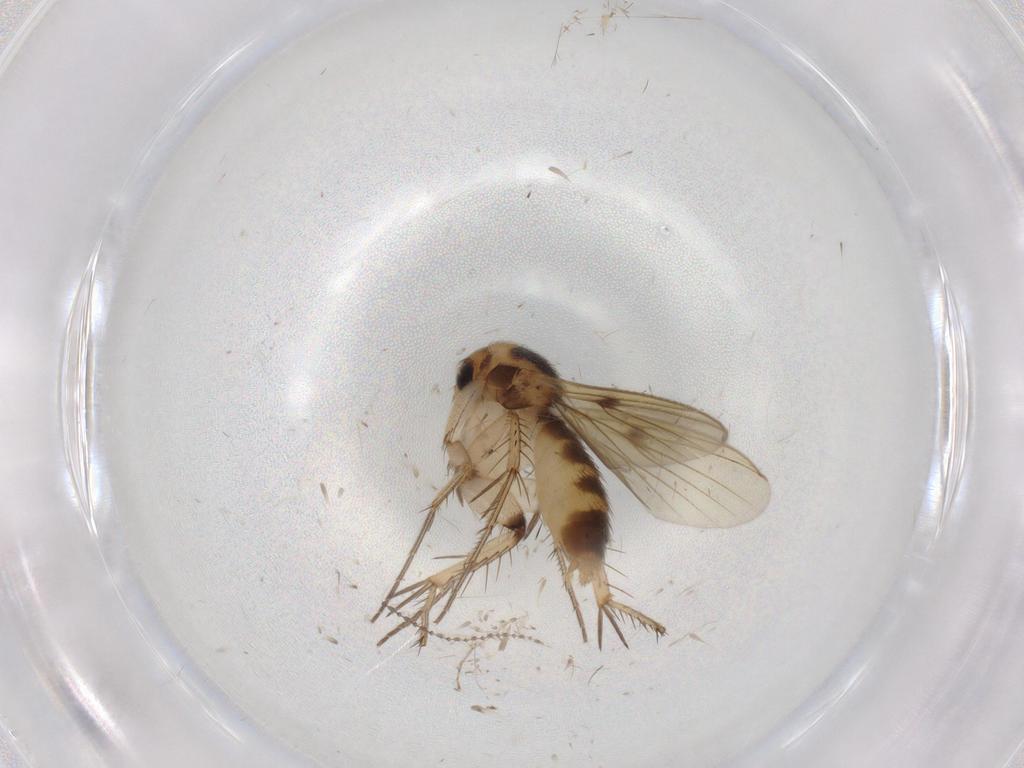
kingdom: Animalia
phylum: Arthropoda
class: Insecta
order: Diptera
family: Mycetophilidae
